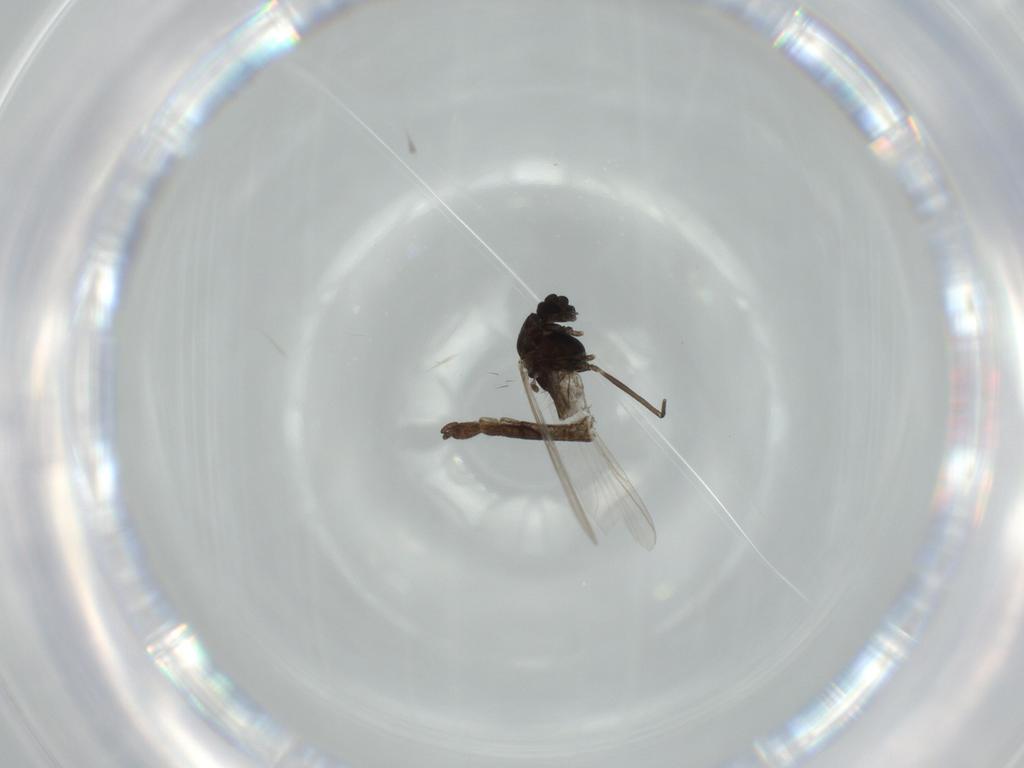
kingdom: Animalia
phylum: Arthropoda
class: Insecta
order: Diptera
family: Chironomidae
